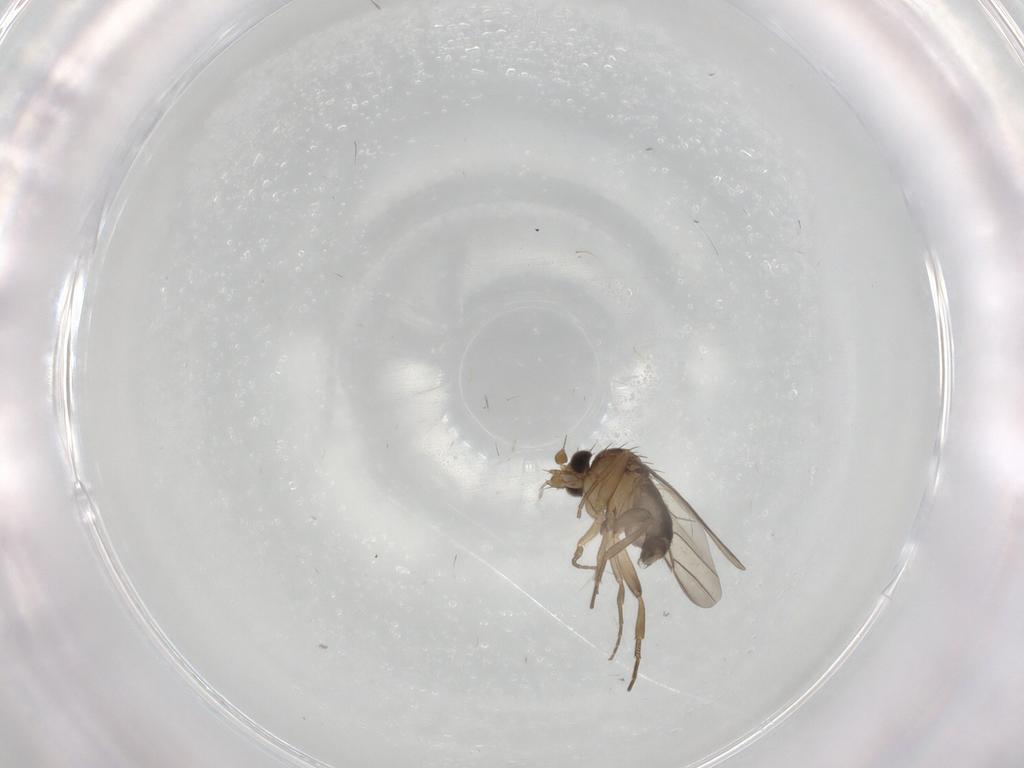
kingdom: Animalia
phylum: Arthropoda
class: Insecta
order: Diptera
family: Phoridae
